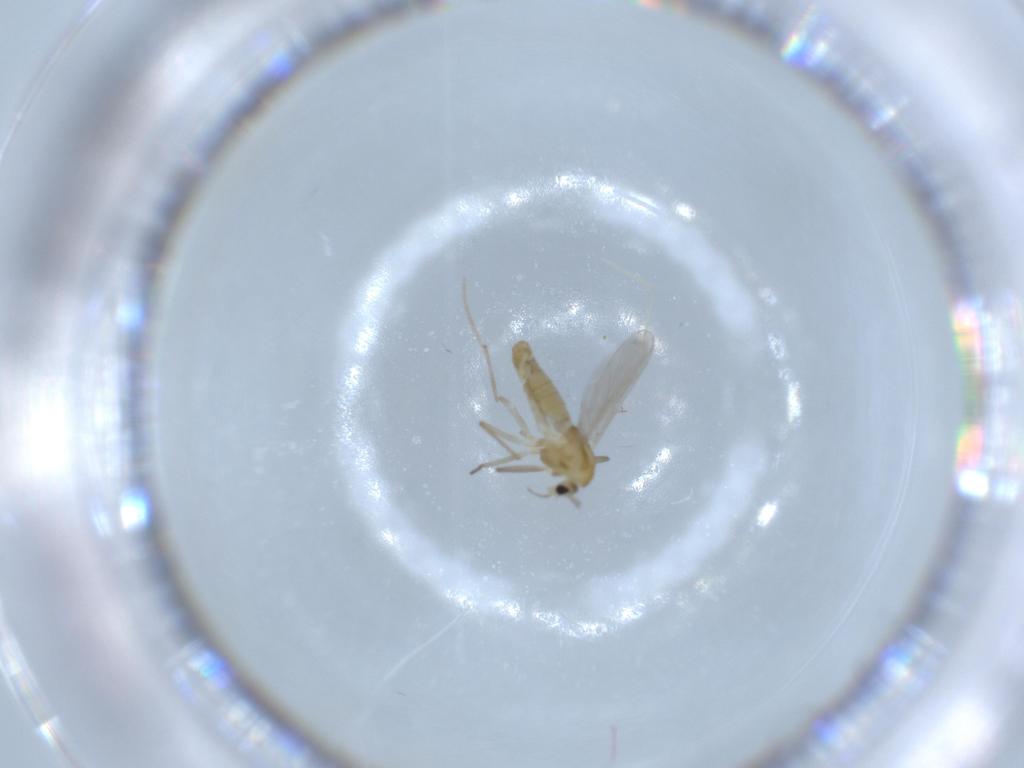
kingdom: Animalia
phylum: Arthropoda
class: Insecta
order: Diptera
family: Chironomidae
